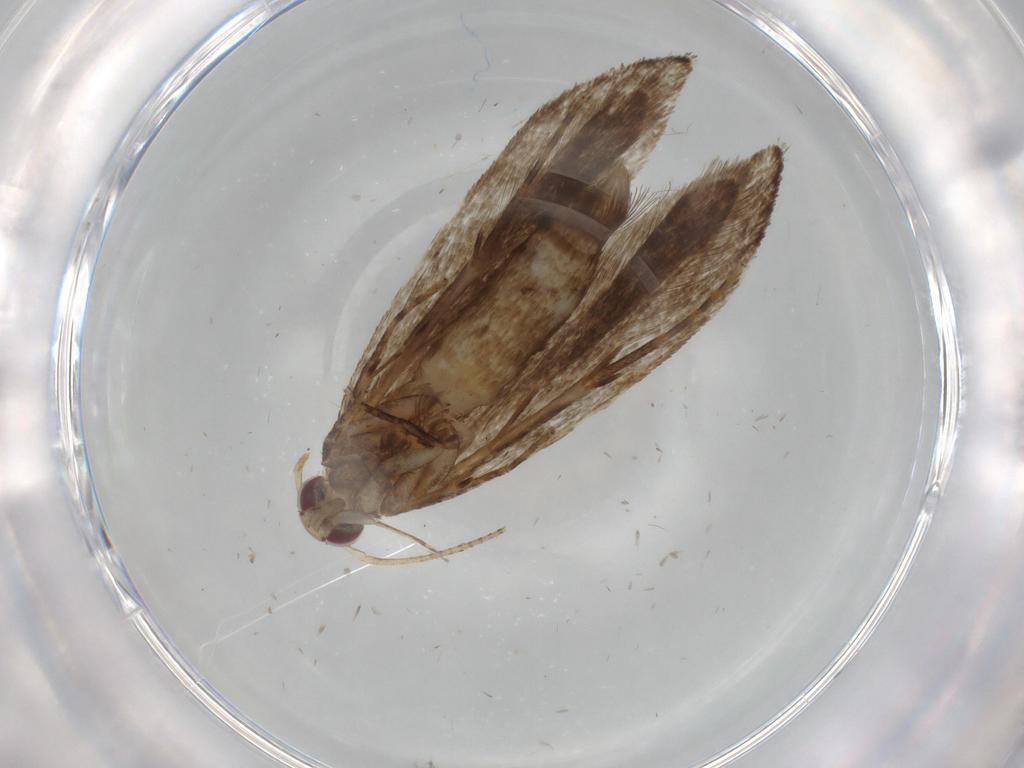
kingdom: Animalia
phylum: Arthropoda
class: Insecta
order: Lepidoptera
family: Gelechiidae
